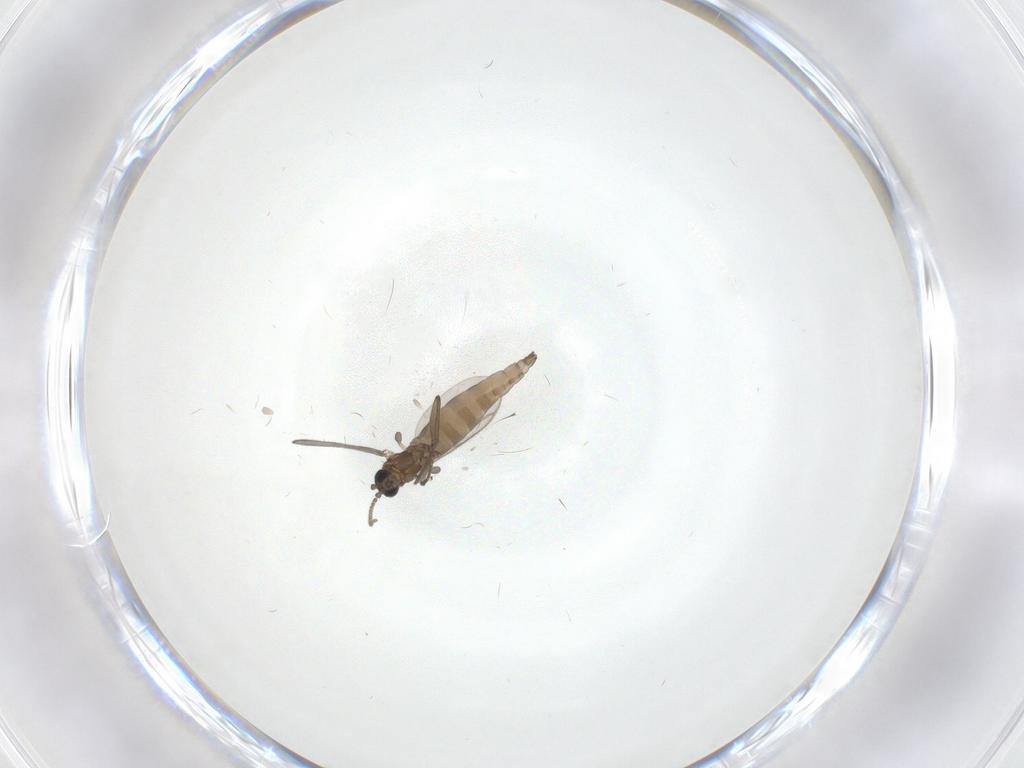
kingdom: Animalia
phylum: Arthropoda
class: Insecta
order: Diptera
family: Cecidomyiidae
